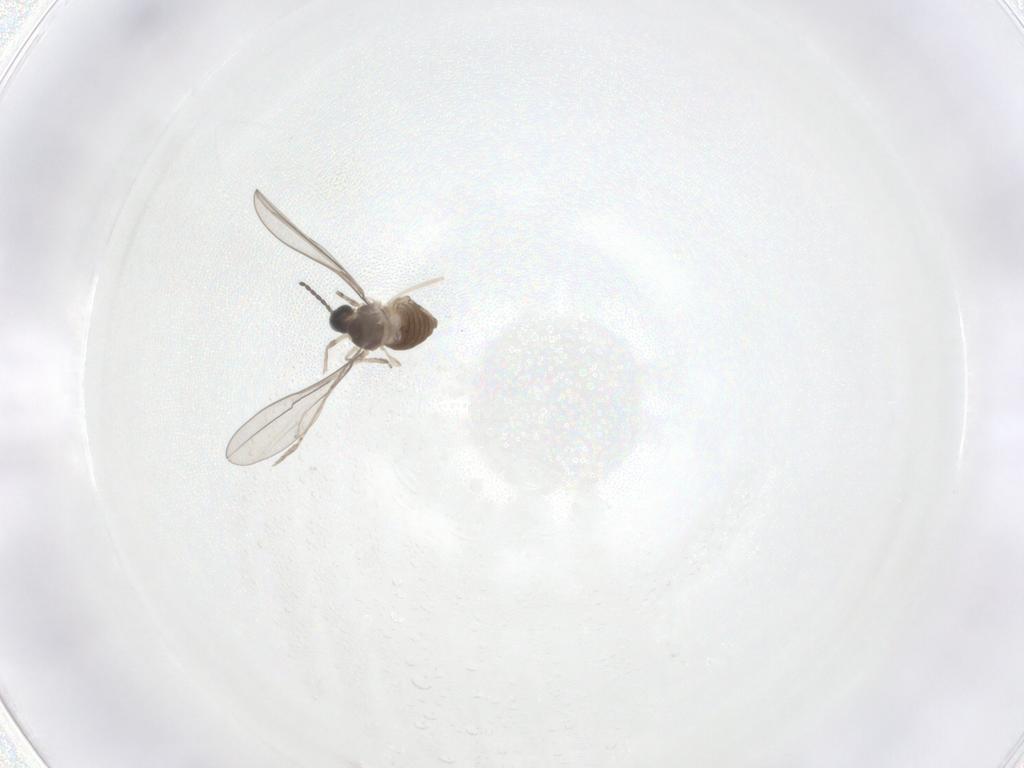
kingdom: Animalia
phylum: Arthropoda
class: Insecta
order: Diptera
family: Cecidomyiidae
